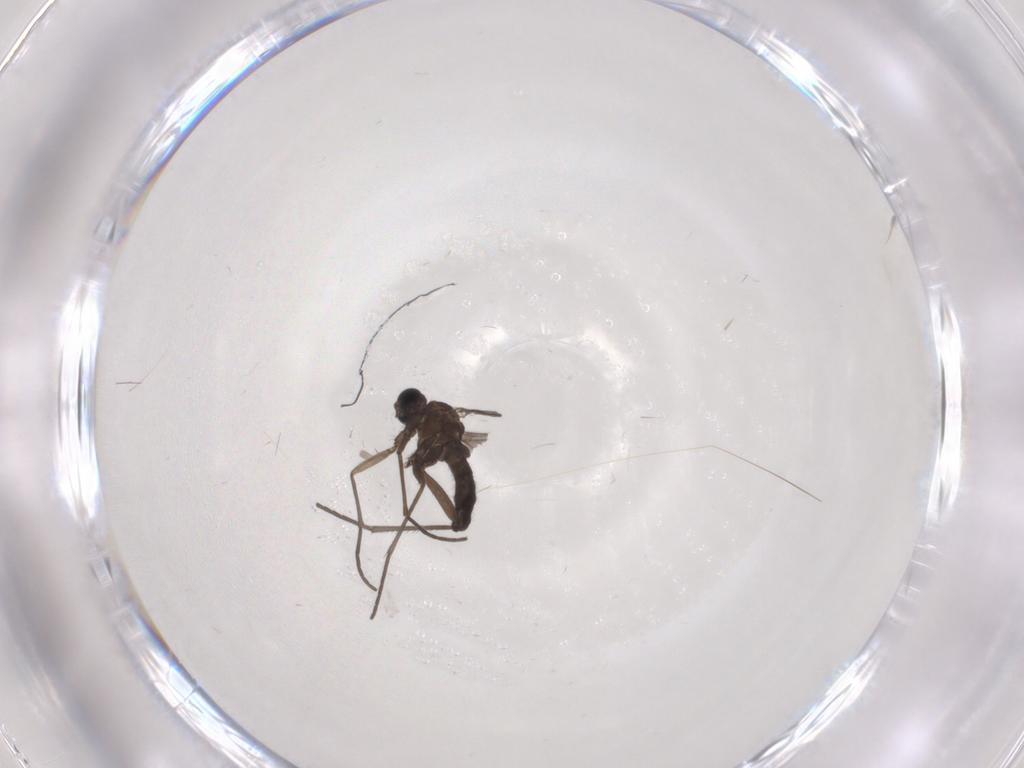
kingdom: Animalia
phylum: Arthropoda
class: Insecta
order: Diptera
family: Sciaridae
